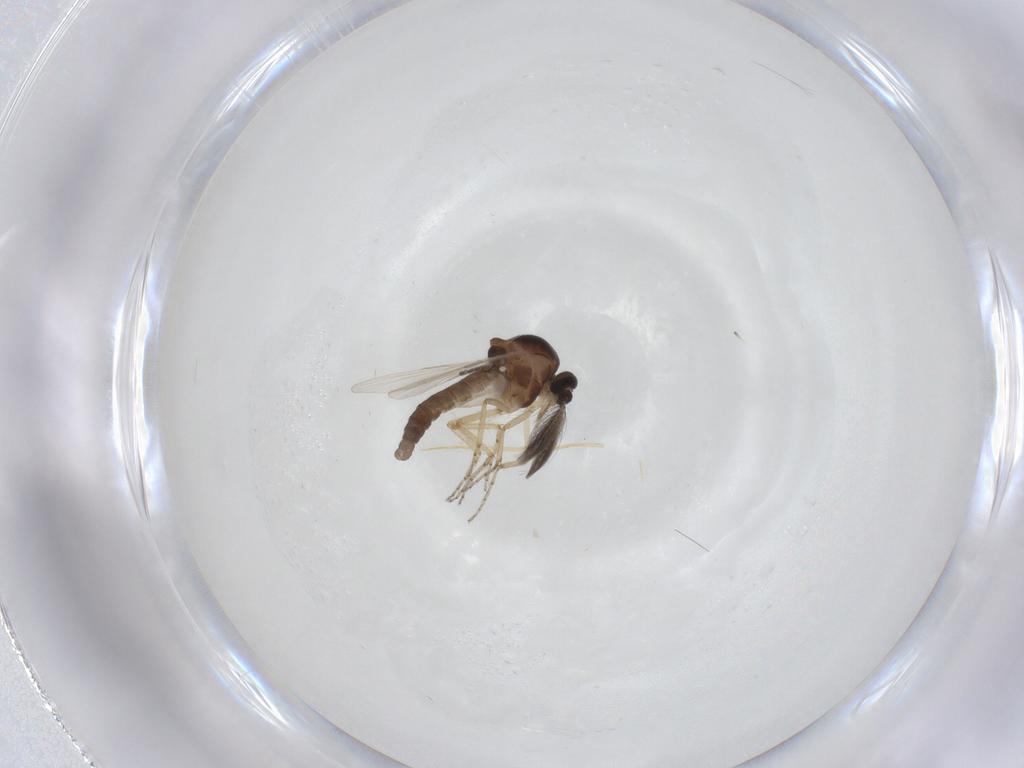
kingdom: Animalia
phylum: Arthropoda
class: Insecta
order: Diptera
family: Ceratopogonidae
